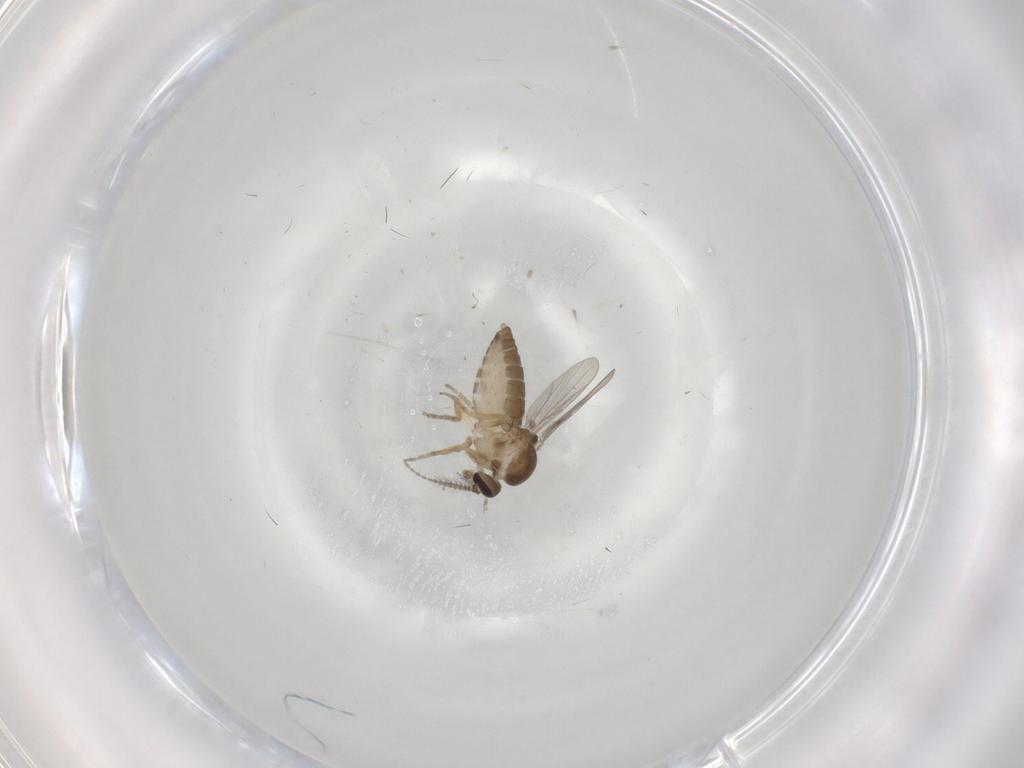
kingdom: Animalia
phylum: Arthropoda
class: Insecta
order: Diptera
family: Ceratopogonidae
